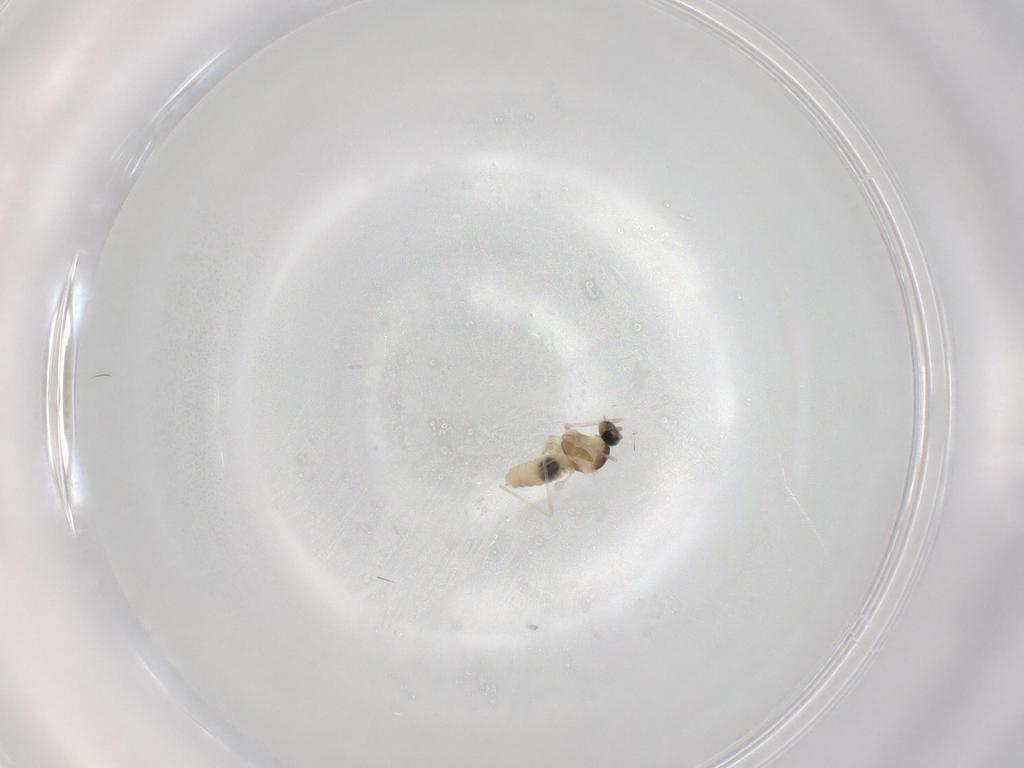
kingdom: Animalia
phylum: Arthropoda
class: Insecta
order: Diptera
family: Cecidomyiidae
